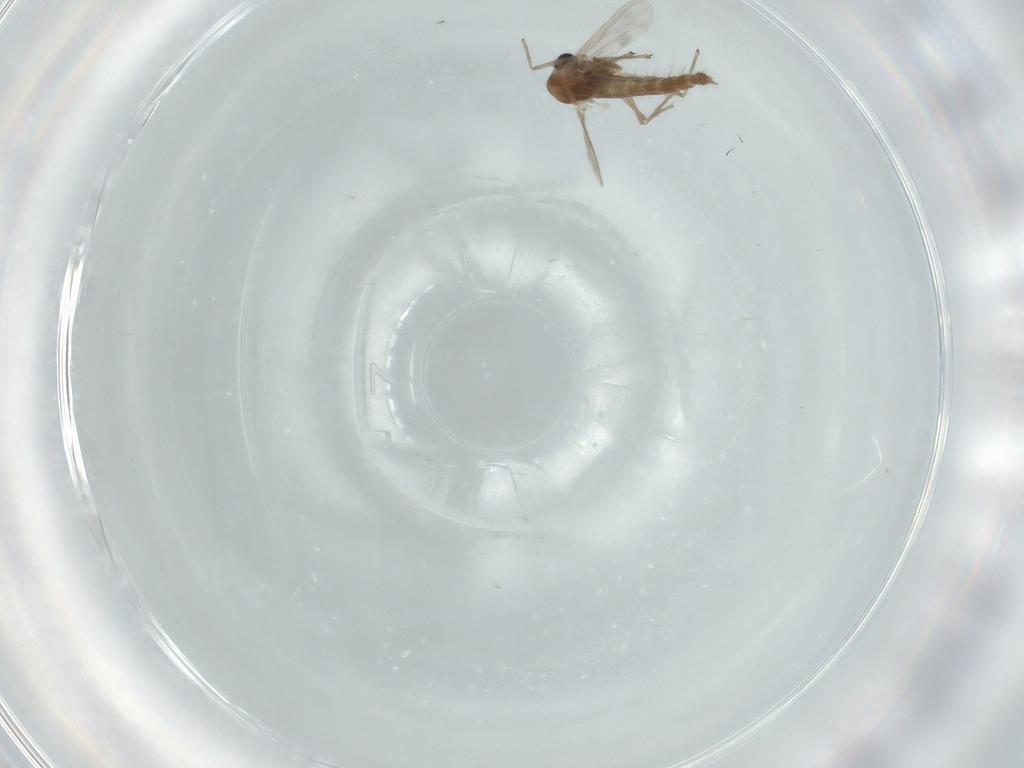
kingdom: Animalia
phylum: Arthropoda
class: Insecta
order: Diptera
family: Chironomidae
